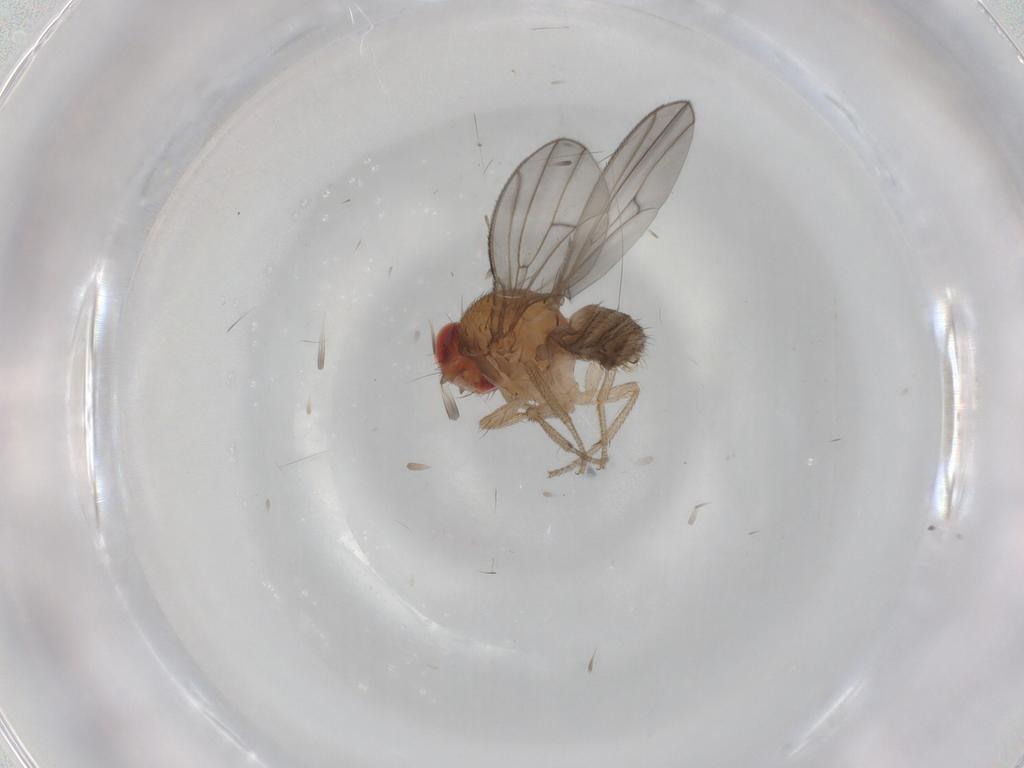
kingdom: Animalia
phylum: Arthropoda
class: Insecta
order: Diptera
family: Drosophilidae
